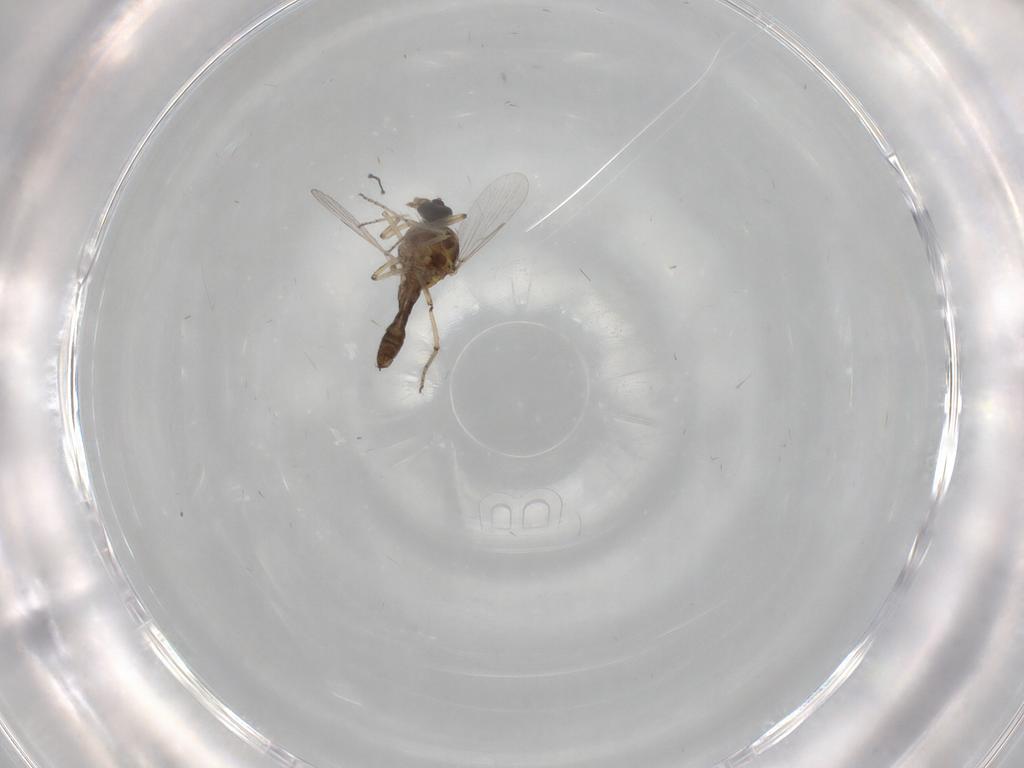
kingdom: Animalia
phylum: Arthropoda
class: Insecta
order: Diptera
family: Ceratopogonidae
